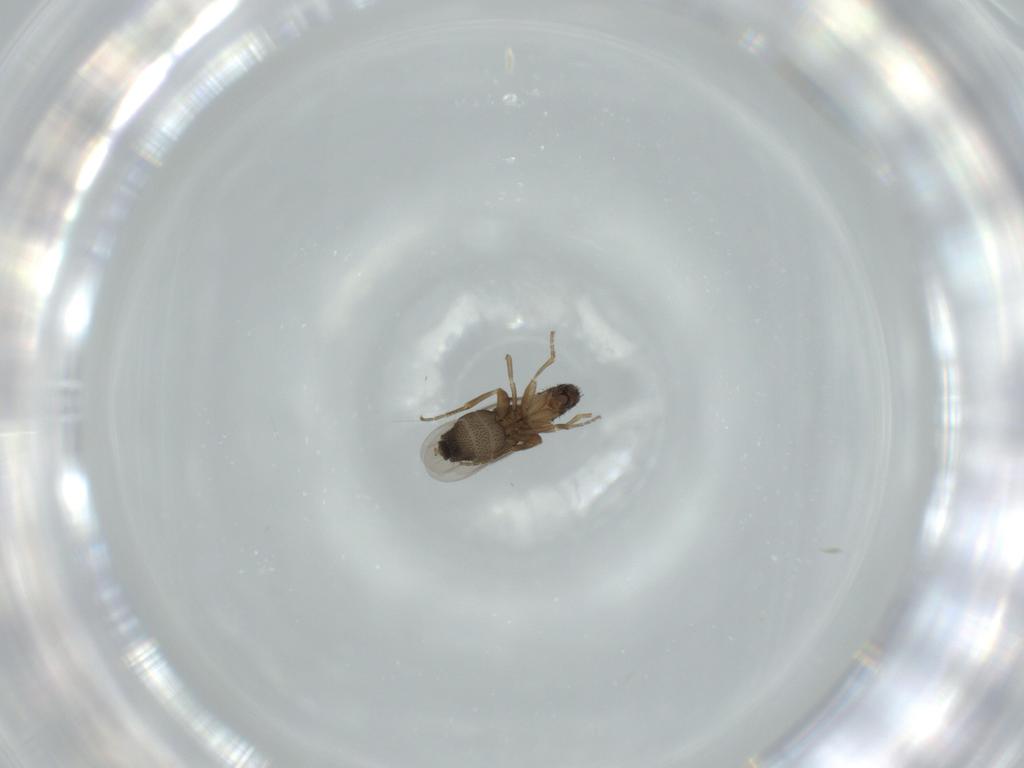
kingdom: Animalia
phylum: Arthropoda
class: Insecta
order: Diptera
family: Phoridae
